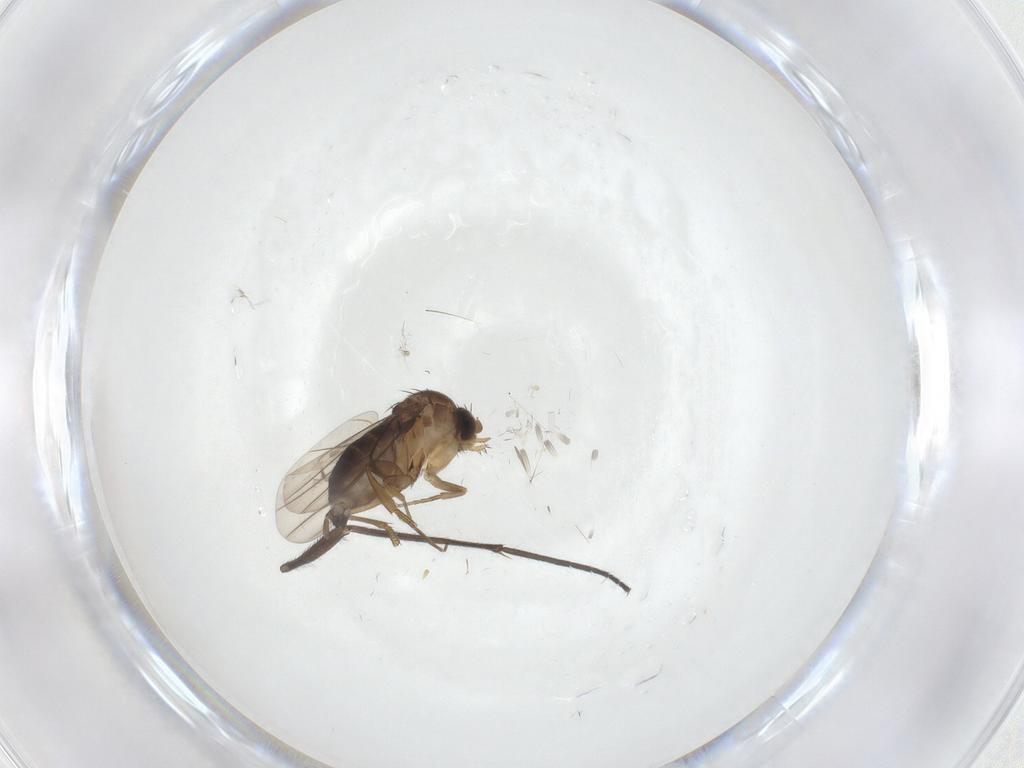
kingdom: Animalia
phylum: Arthropoda
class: Insecta
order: Diptera
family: Phoridae
